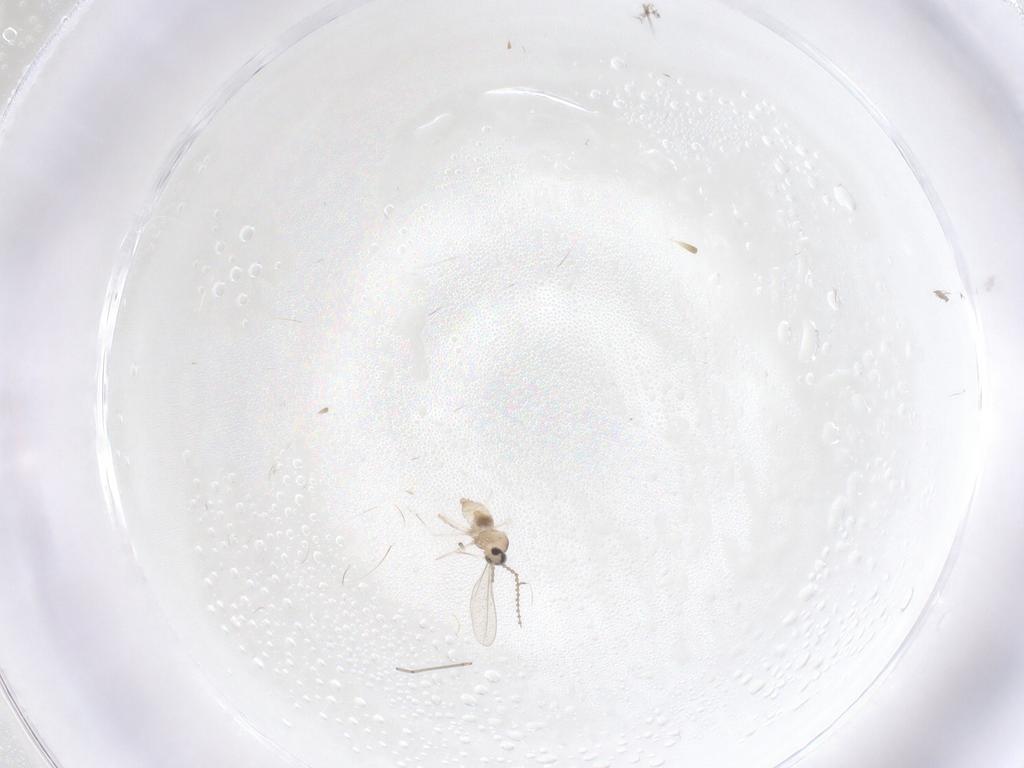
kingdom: Animalia
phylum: Arthropoda
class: Insecta
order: Diptera
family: Cecidomyiidae
